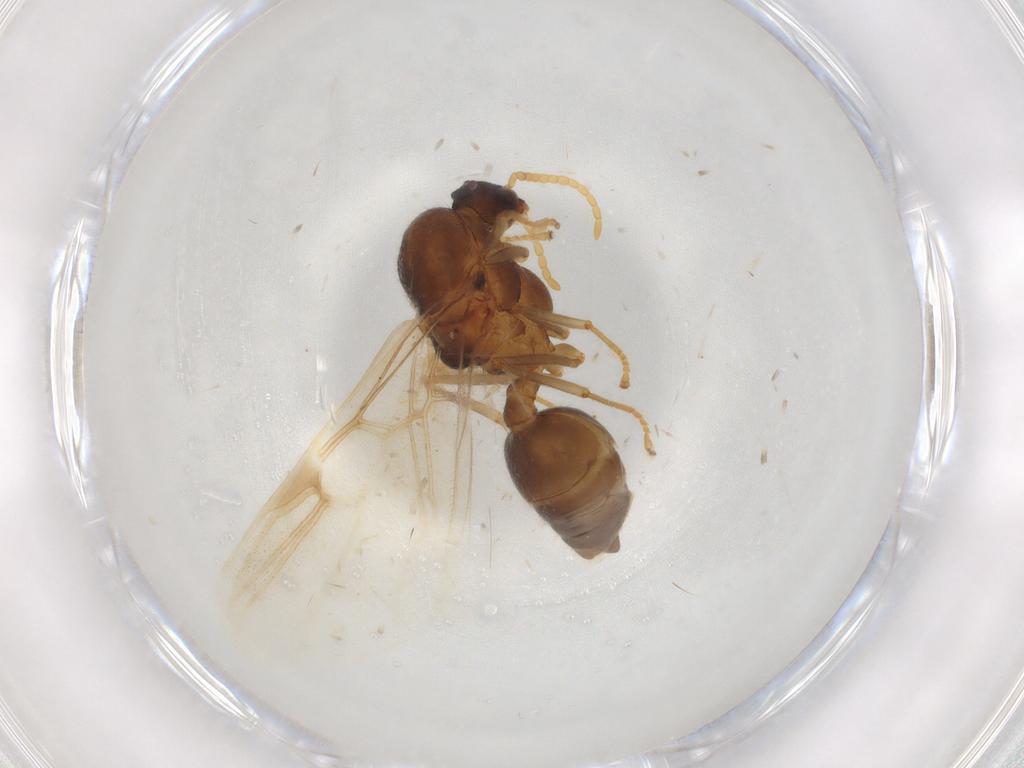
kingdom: Animalia
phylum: Arthropoda
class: Insecta
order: Hymenoptera
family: Formicidae
